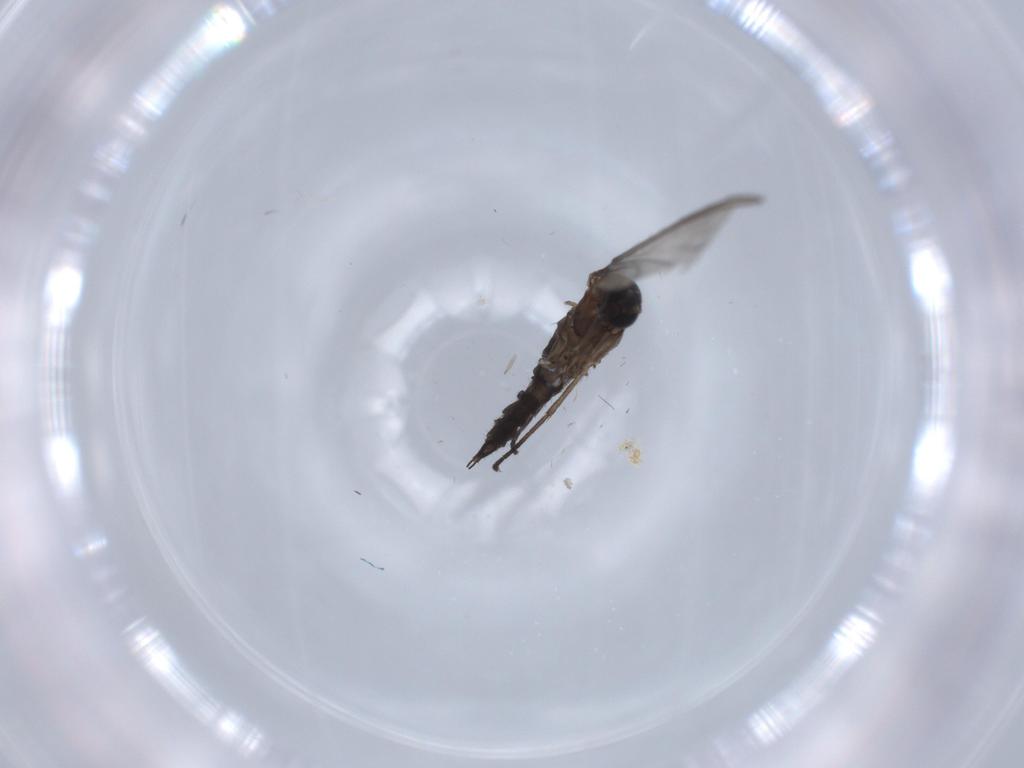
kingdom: Animalia
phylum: Arthropoda
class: Insecta
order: Diptera
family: Sciaridae
